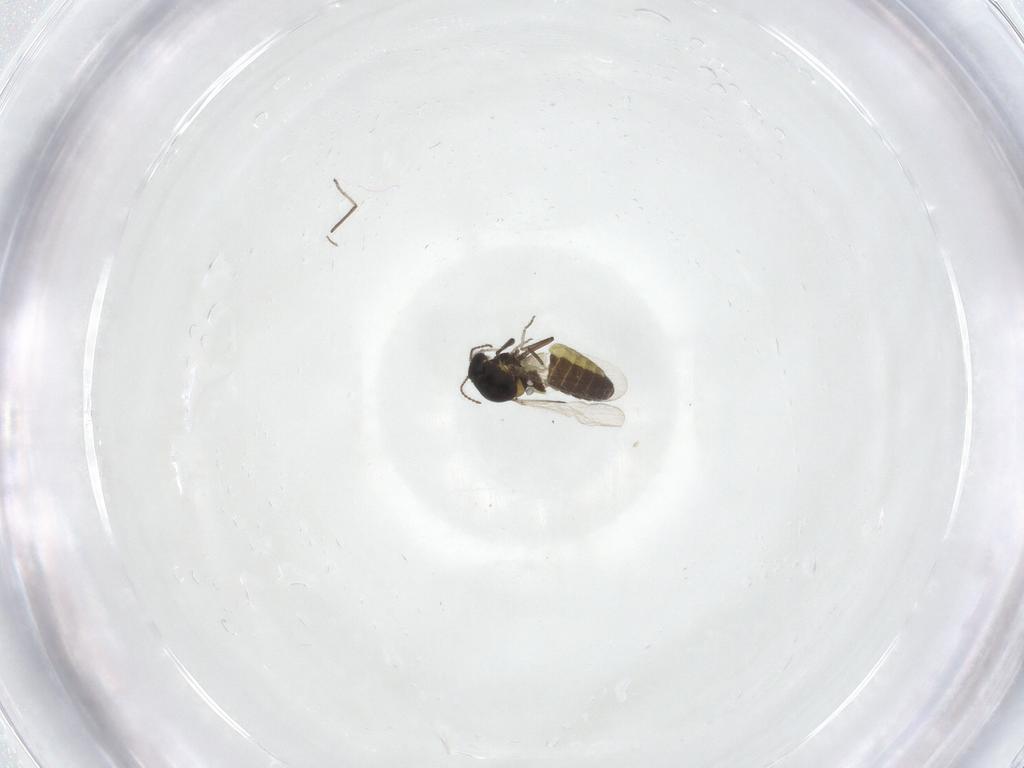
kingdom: Animalia
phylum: Arthropoda
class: Insecta
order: Diptera
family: Ceratopogonidae
